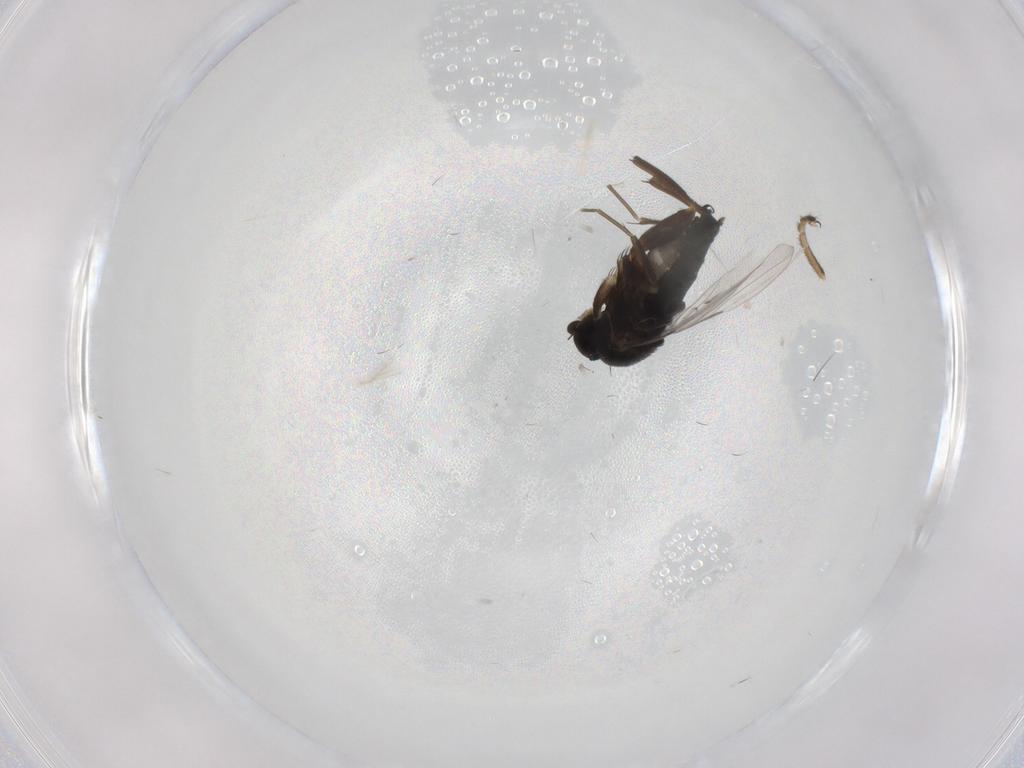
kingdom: Animalia
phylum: Arthropoda
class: Insecta
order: Diptera
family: Phoridae
